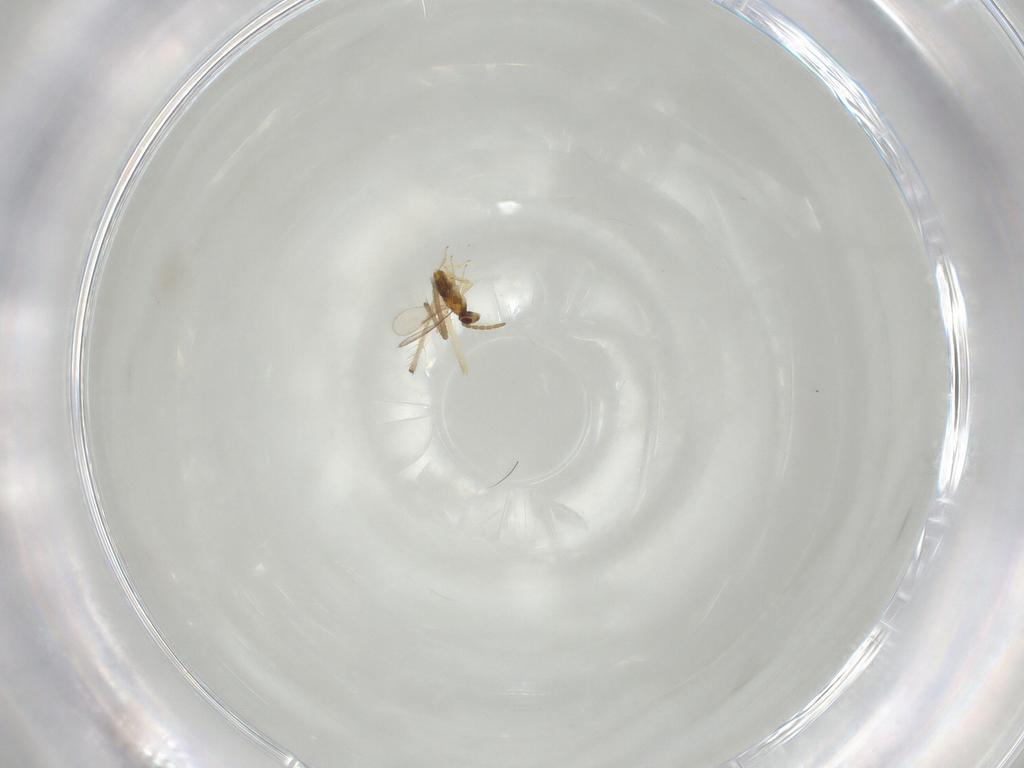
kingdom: Animalia
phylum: Arthropoda
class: Insecta
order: Hymenoptera
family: Aphelinidae
